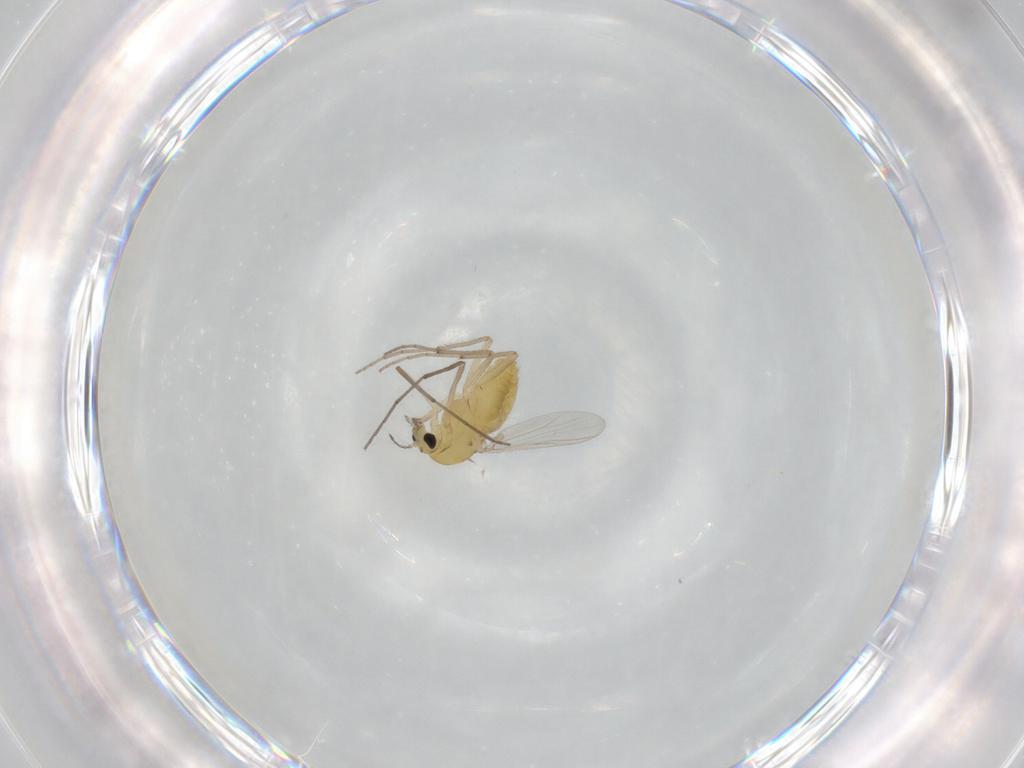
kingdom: Animalia
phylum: Arthropoda
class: Insecta
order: Diptera
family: Chironomidae
